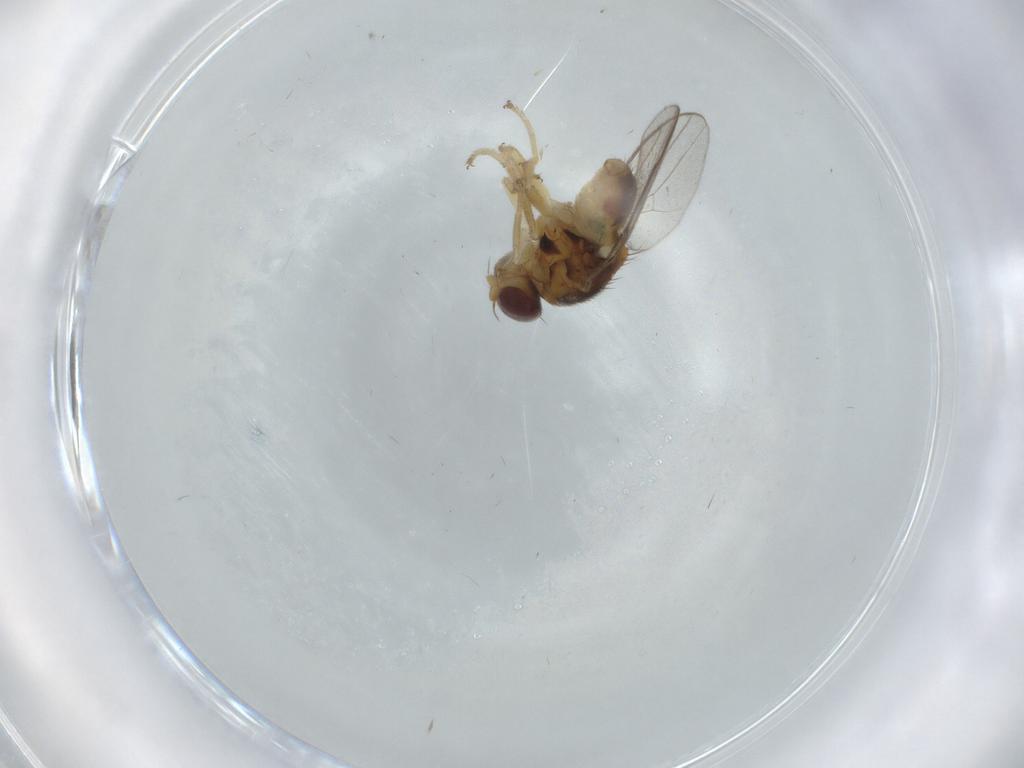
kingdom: Animalia
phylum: Arthropoda
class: Insecta
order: Diptera
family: Chloropidae
